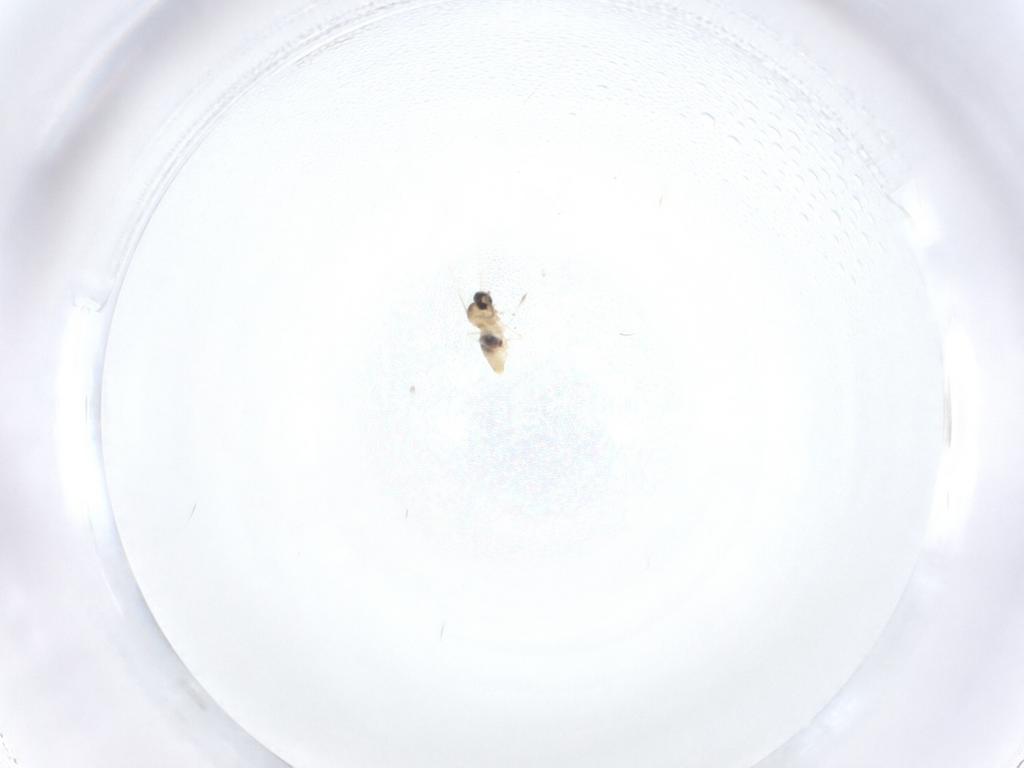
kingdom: Animalia
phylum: Arthropoda
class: Insecta
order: Diptera
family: Cecidomyiidae
